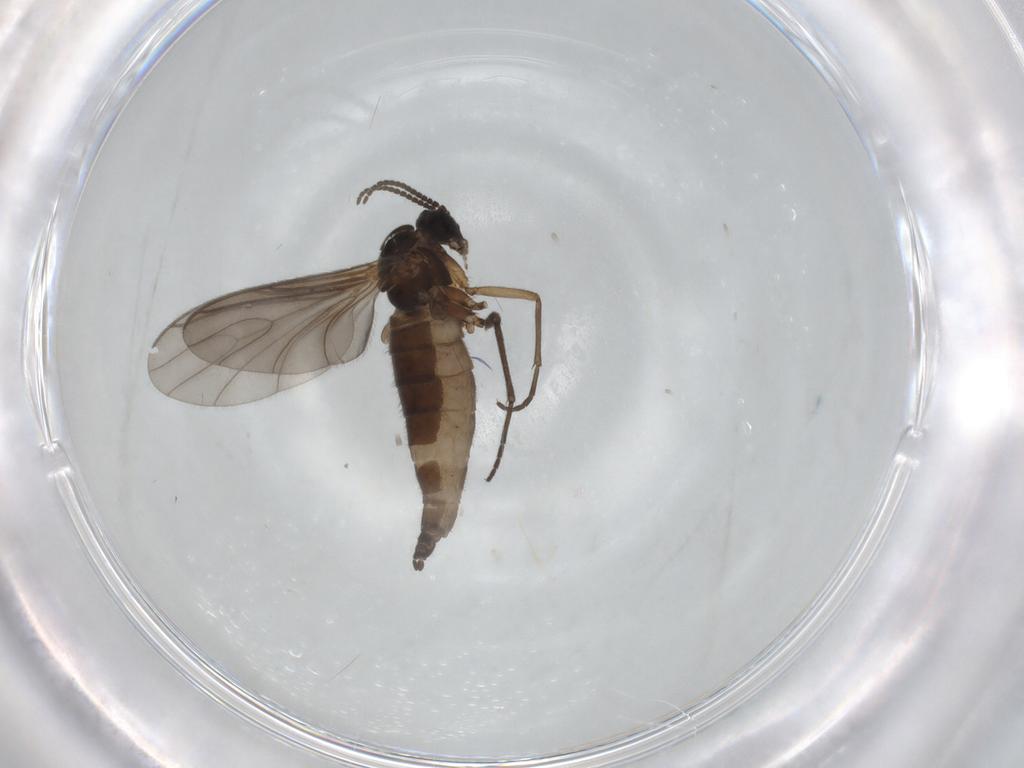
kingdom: Animalia
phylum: Arthropoda
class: Insecta
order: Diptera
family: Sciaridae
